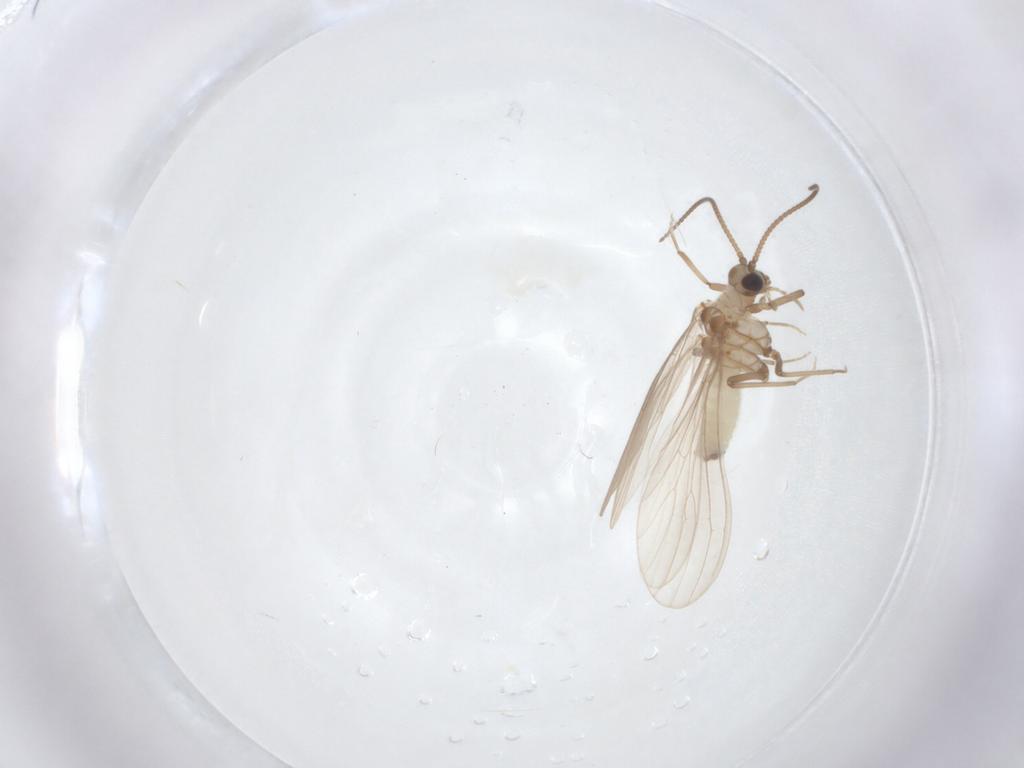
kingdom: Animalia
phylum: Arthropoda
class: Insecta
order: Neuroptera
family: Coniopterygidae
